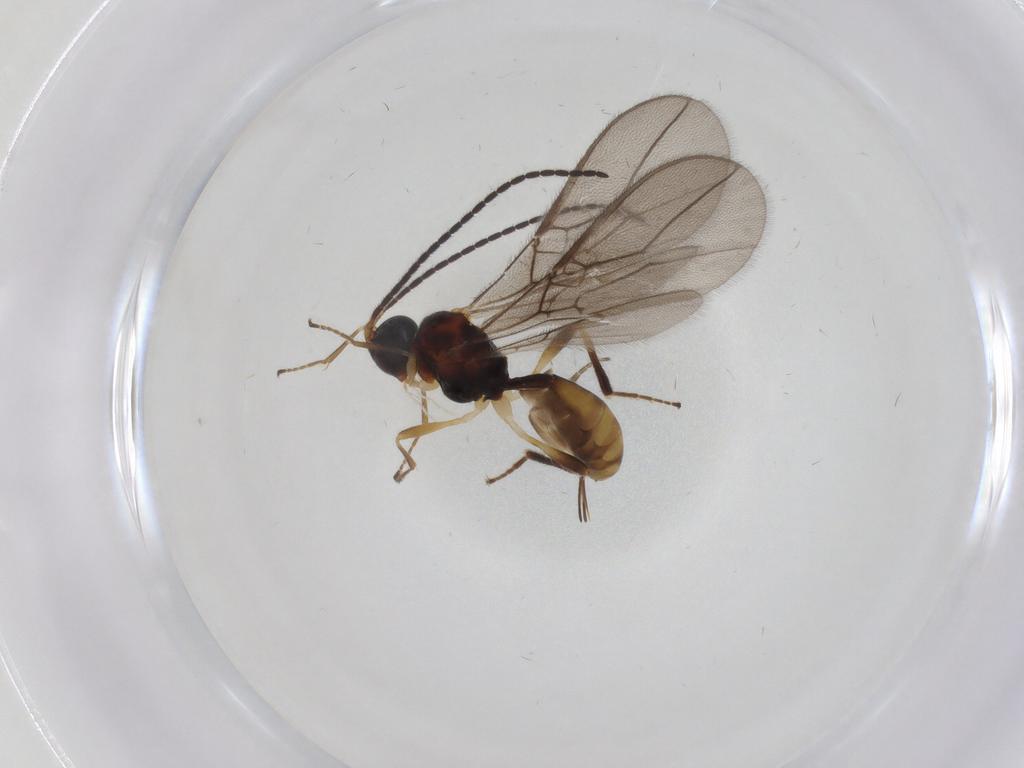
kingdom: Animalia
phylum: Arthropoda
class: Insecta
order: Hymenoptera
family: Braconidae
